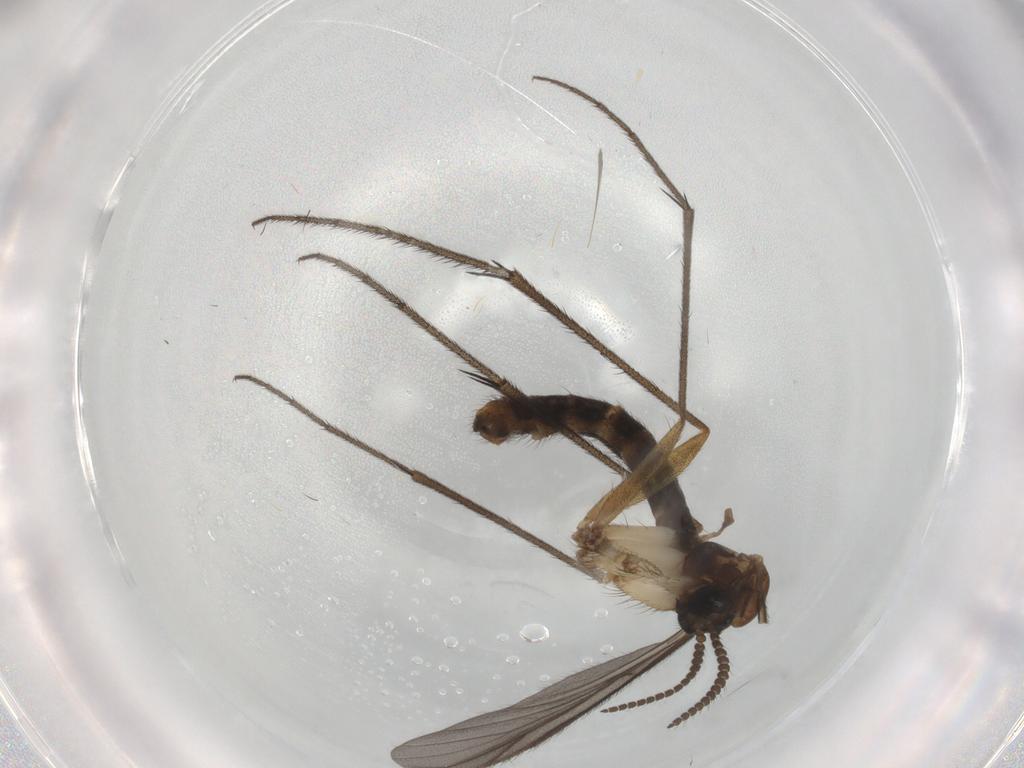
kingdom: Animalia
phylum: Arthropoda
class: Insecta
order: Diptera
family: Ditomyiidae
